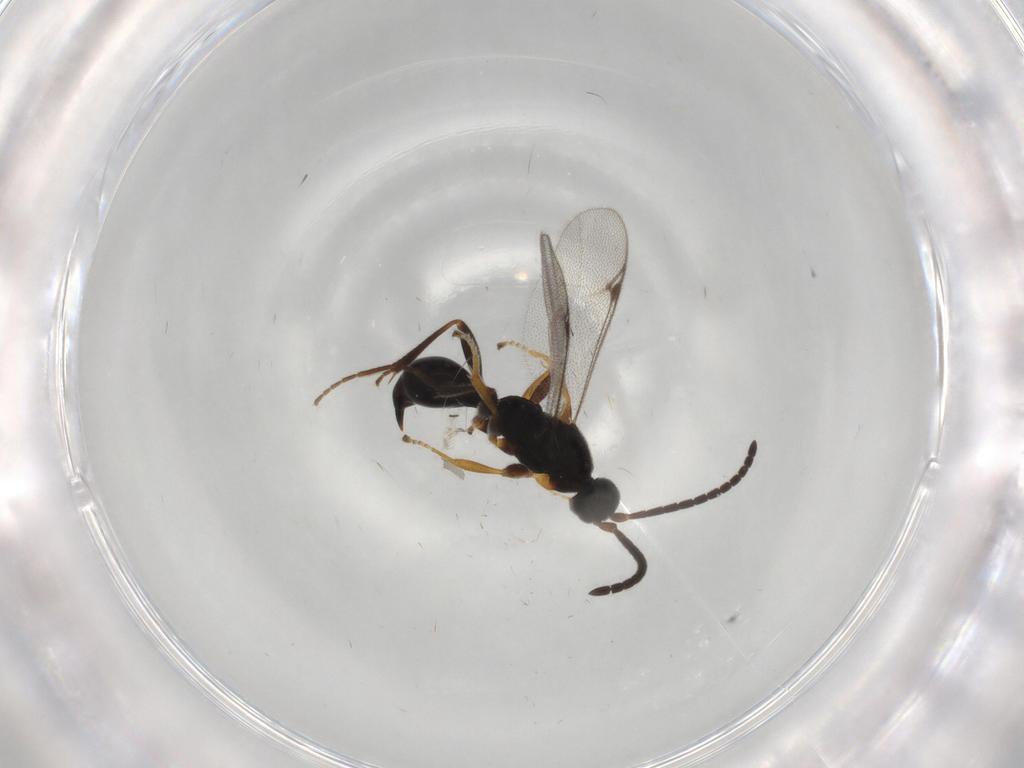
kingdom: Animalia
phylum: Arthropoda
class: Insecta
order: Hymenoptera
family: Proctotrupidae
